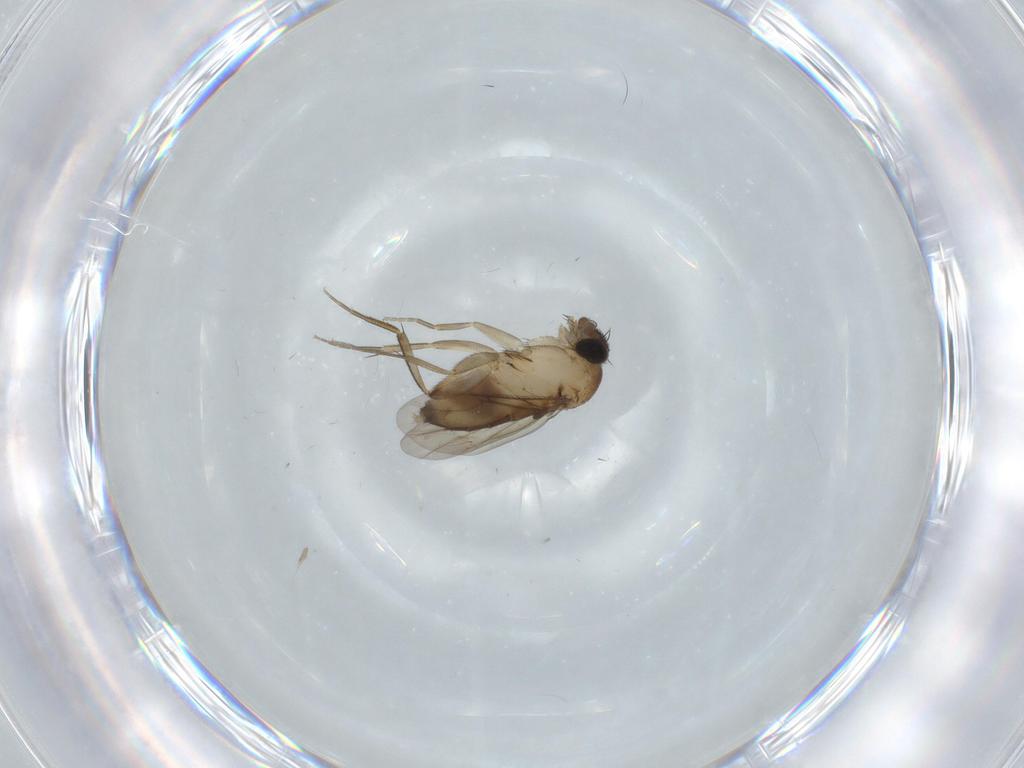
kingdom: Animalia
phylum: Arthropoda
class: Insecta
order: Diptera
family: Phoridae
